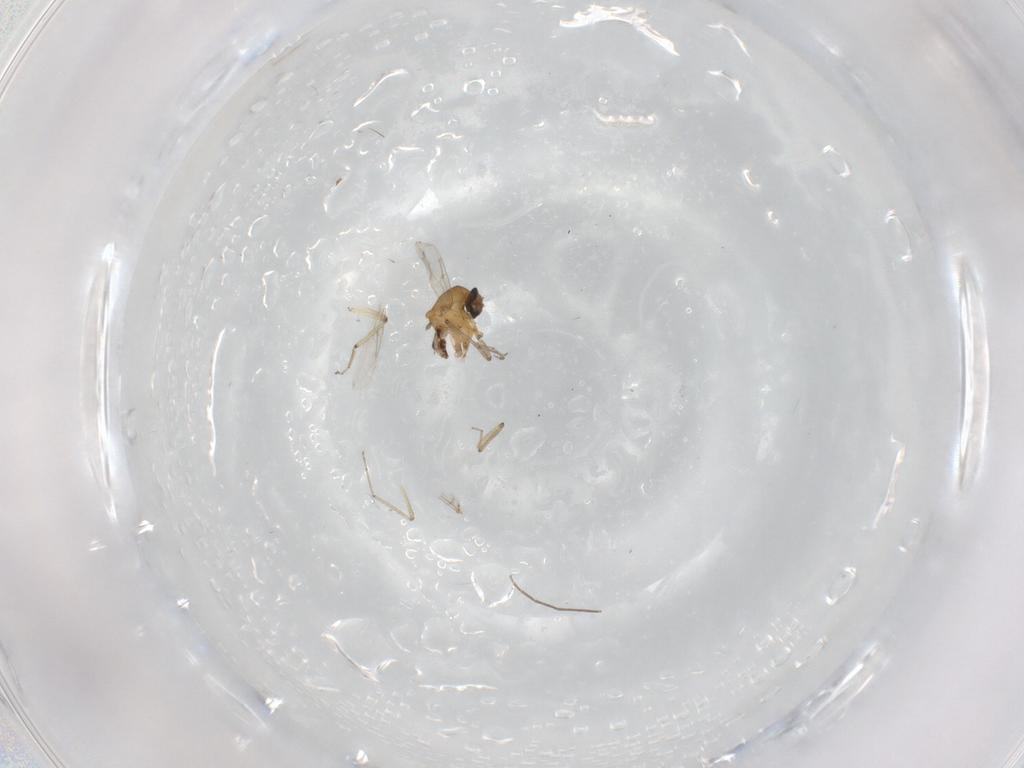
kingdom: Animalia
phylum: Arthropoda
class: Insecta
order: Diptera
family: Ceratopogonidae
